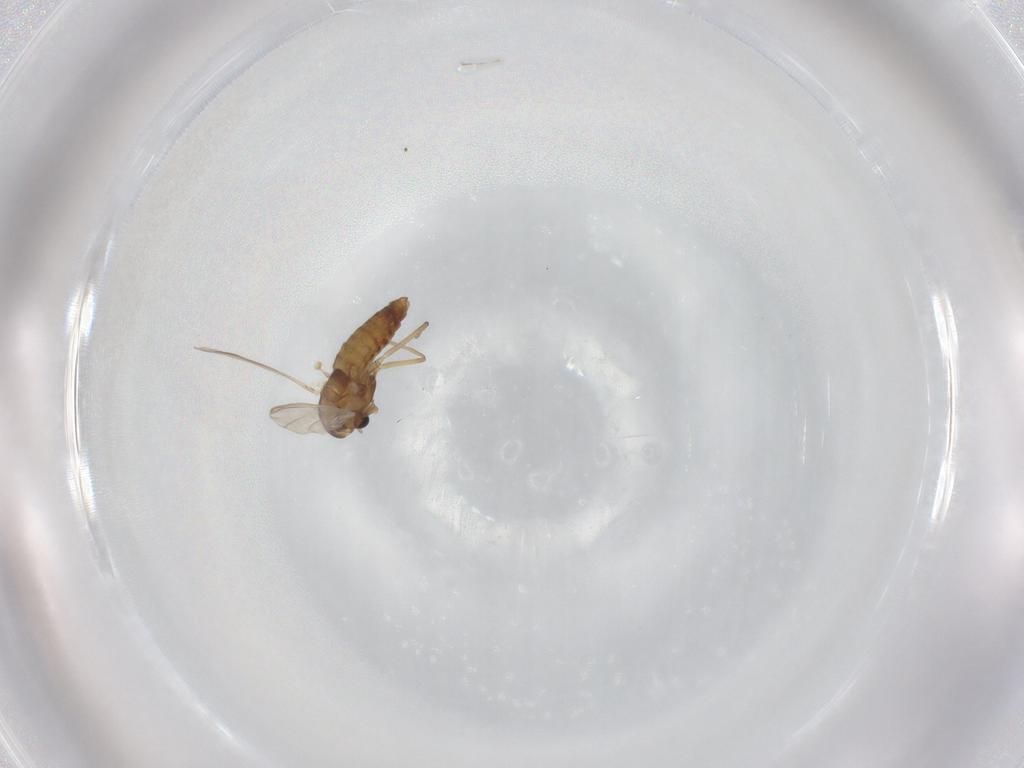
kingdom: Animalia
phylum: Arthropoda
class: Insecta
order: Diptera
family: Chironomidae
